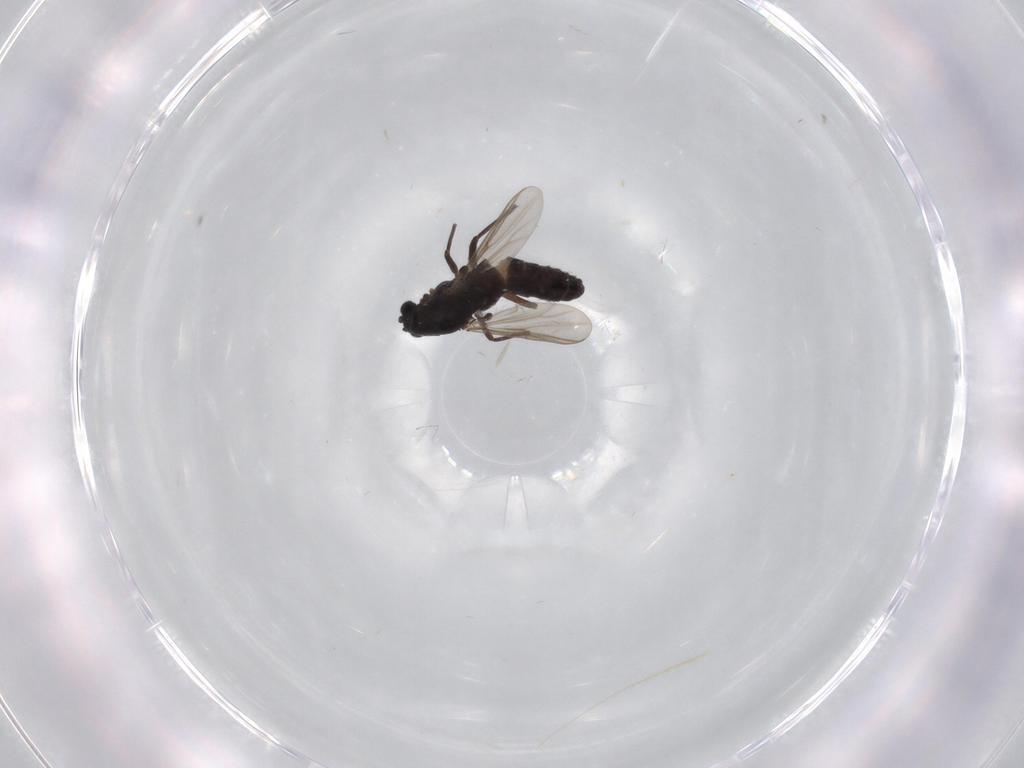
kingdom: Animalia
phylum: Arthropoda
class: Insecta
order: Diptera
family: Chironomidae
